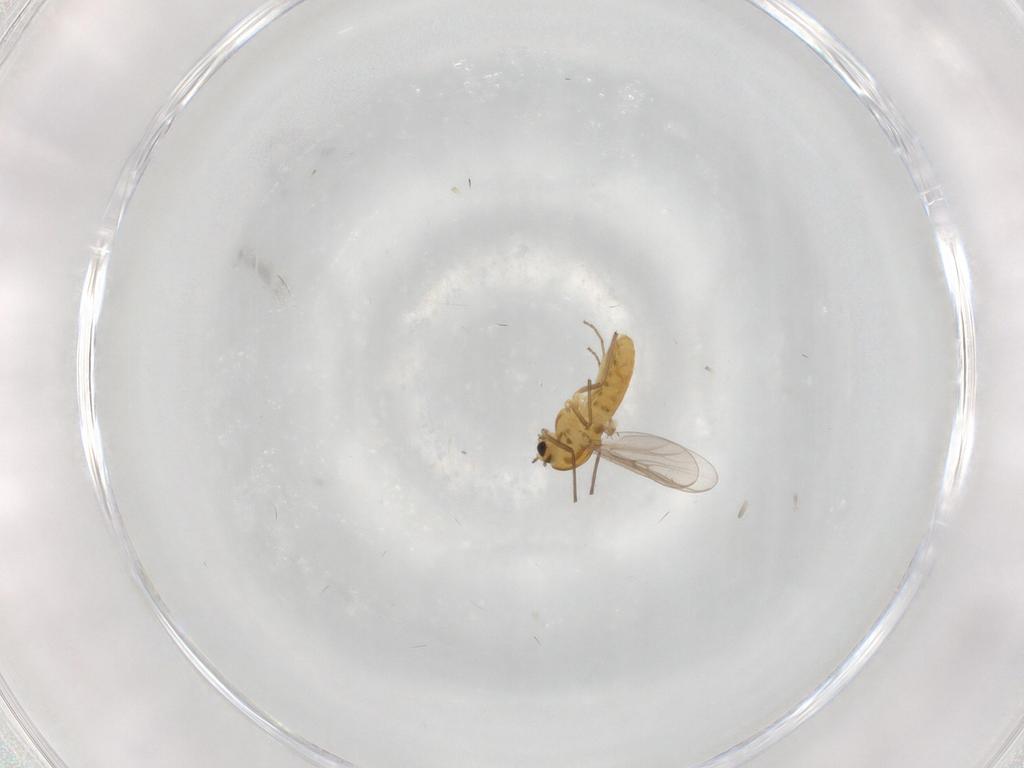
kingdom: Animalia
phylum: Arthropoda
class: Insecta
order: Diptera
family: Chironomidae
